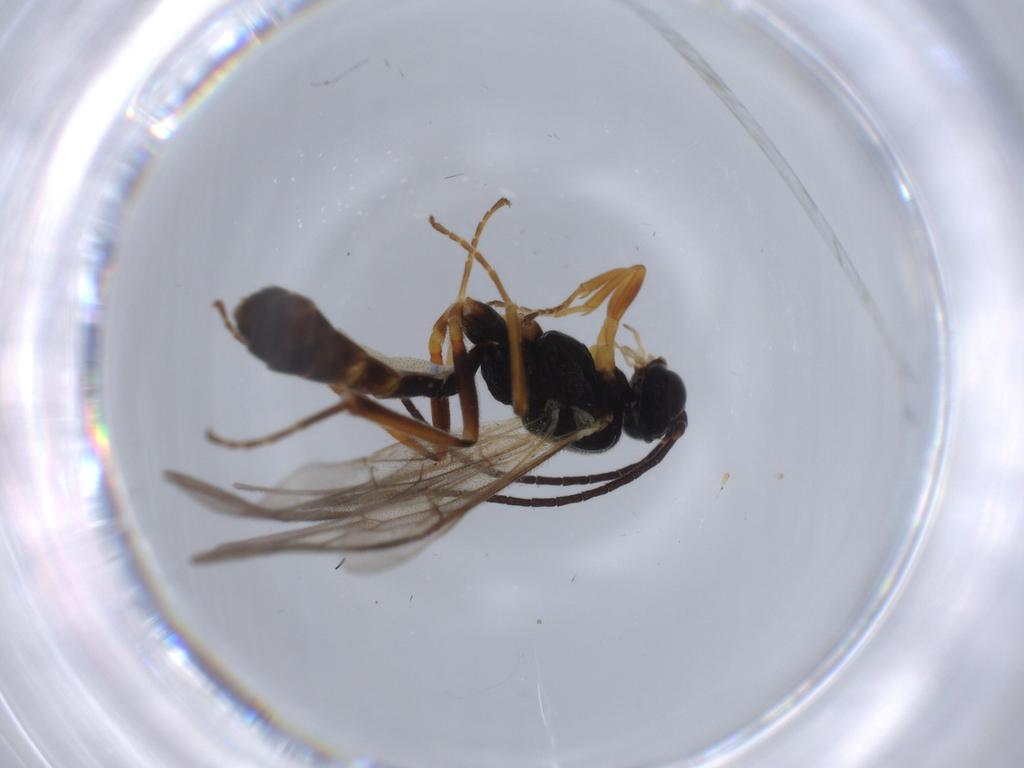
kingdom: Animalia
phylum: Arthropoda
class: Insecta
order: Hymenoptera
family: Ichneumonidae
